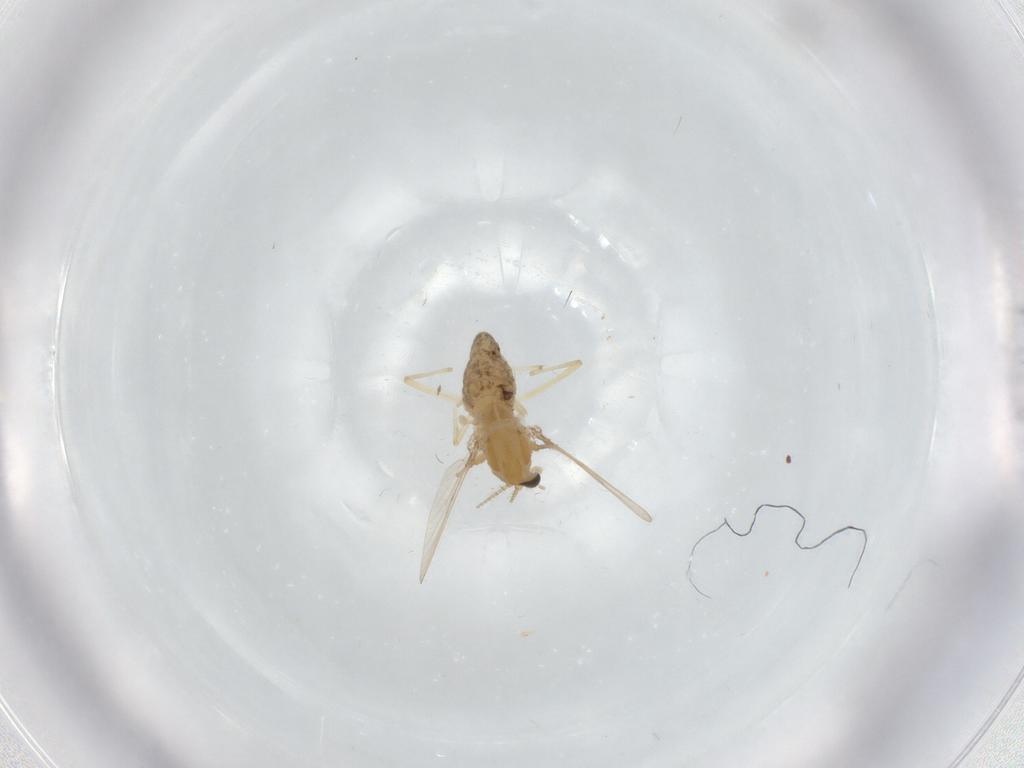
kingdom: Animalia
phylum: Arthropoda
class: Insecta
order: Diptera
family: Chironomidae
